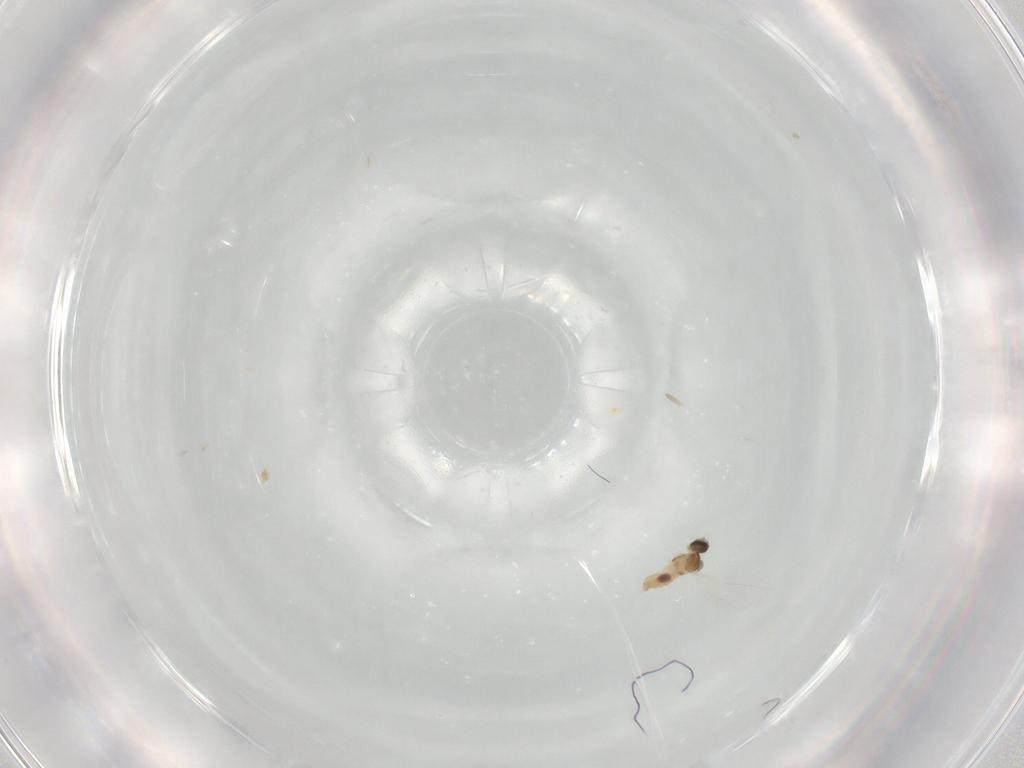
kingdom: Animalia
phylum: Arthropoda
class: Insecta
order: Diptera
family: Cecidomyiidae
